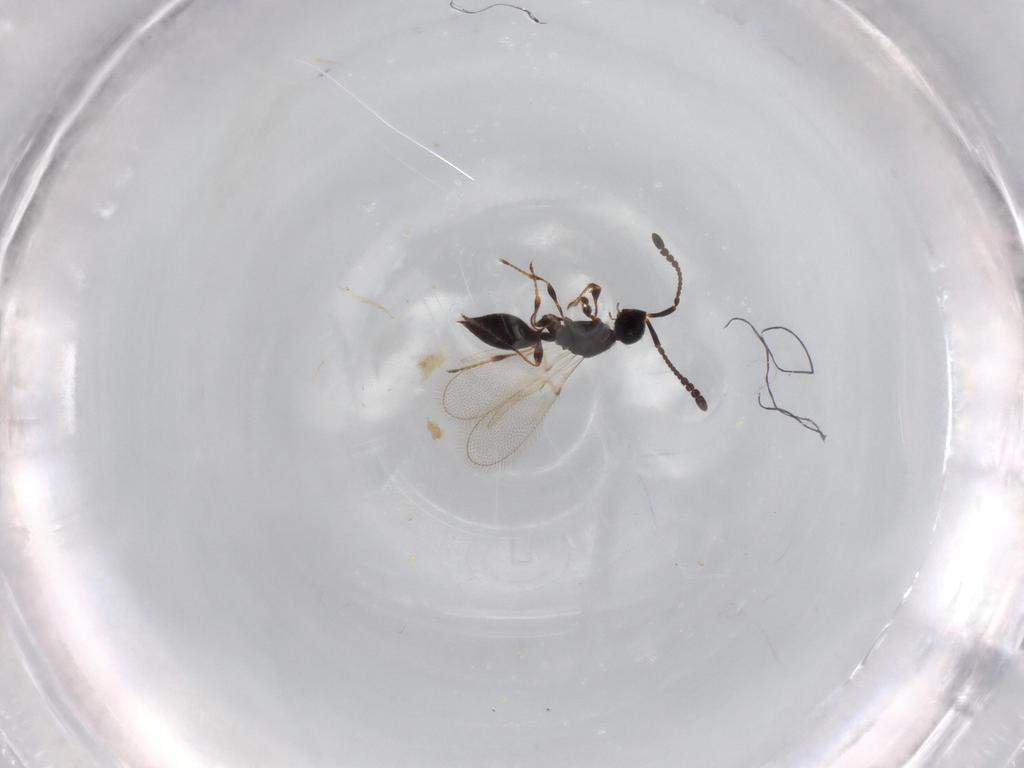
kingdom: Animalia
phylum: Arthropoda
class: Insecta
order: Hymenoptera
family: Diapriidae
